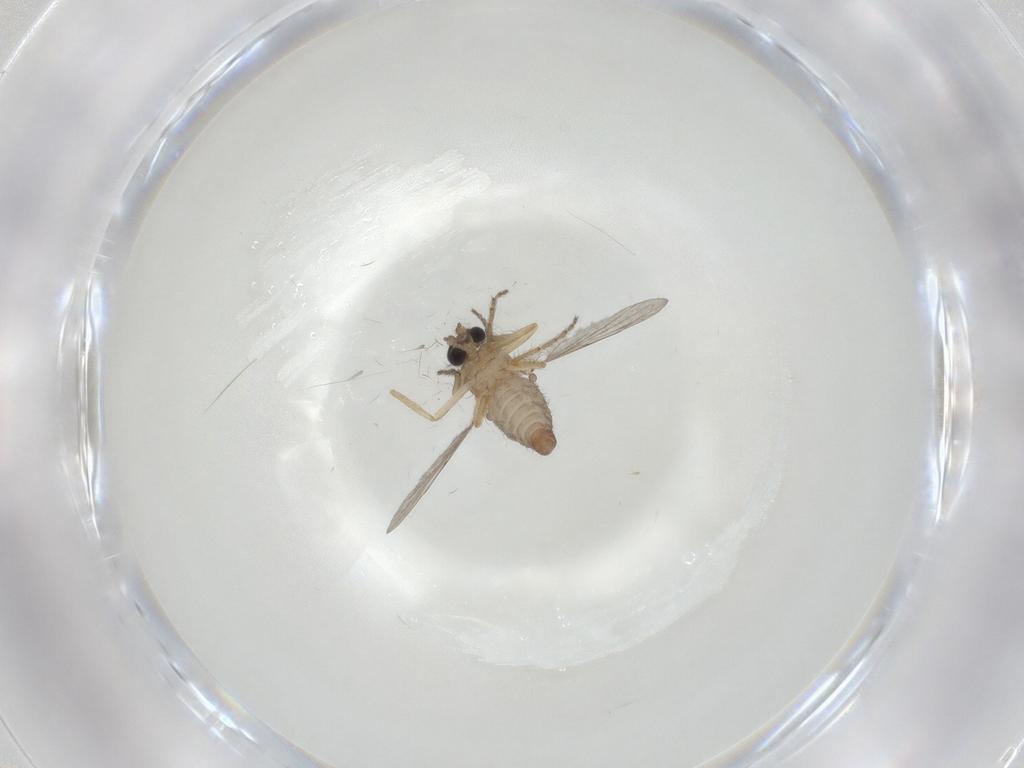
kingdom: Animalia
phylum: Arthropoda
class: Insecta
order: Diptera
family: Ceratopogonidae
